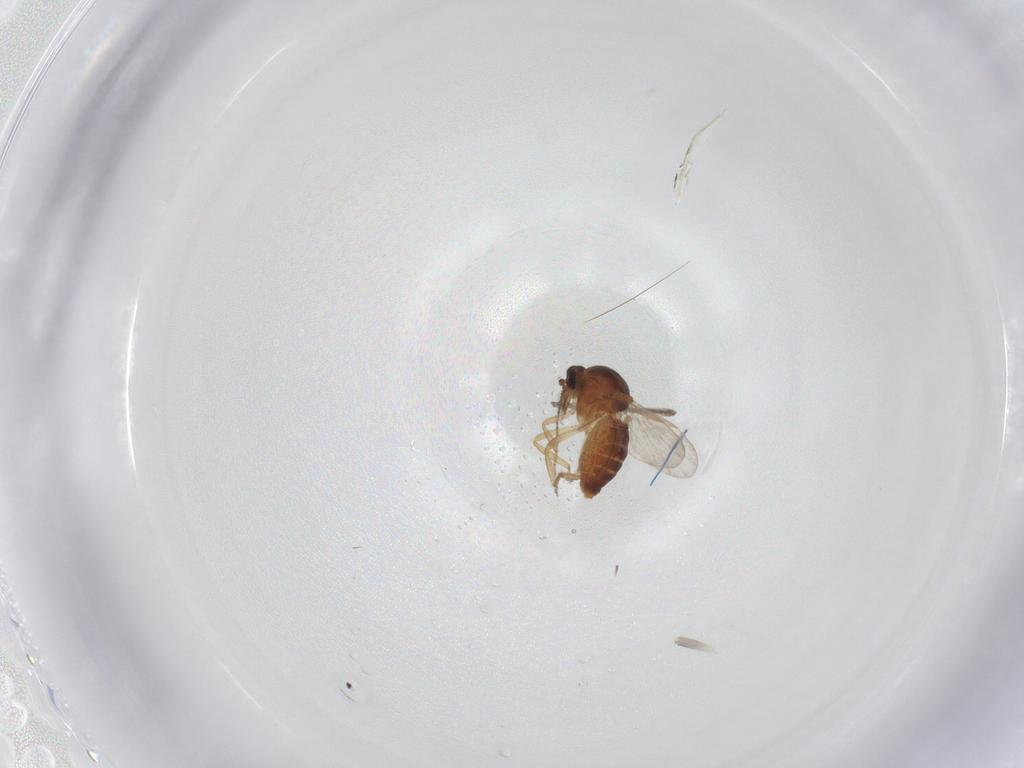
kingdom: Animalia
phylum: Arthropoda
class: Insecta
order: Diptera
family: Ceratopogonidae
